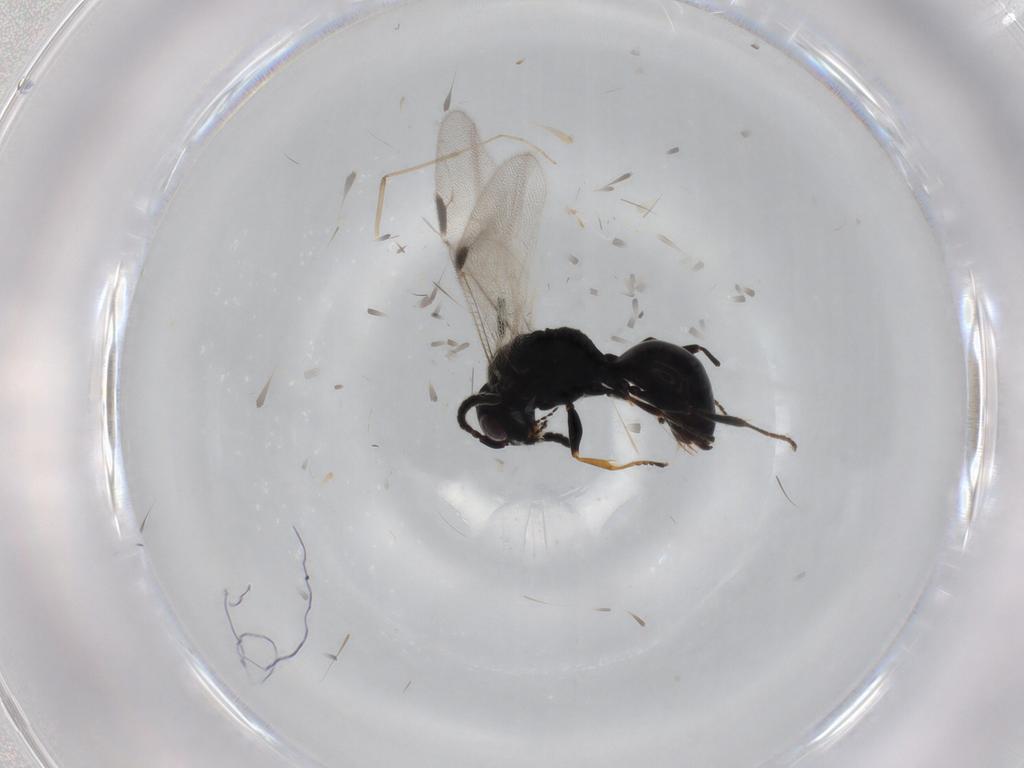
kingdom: Animalia
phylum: Arthropoda
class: Insecta
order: Hymenoptera
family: Dryinidae
